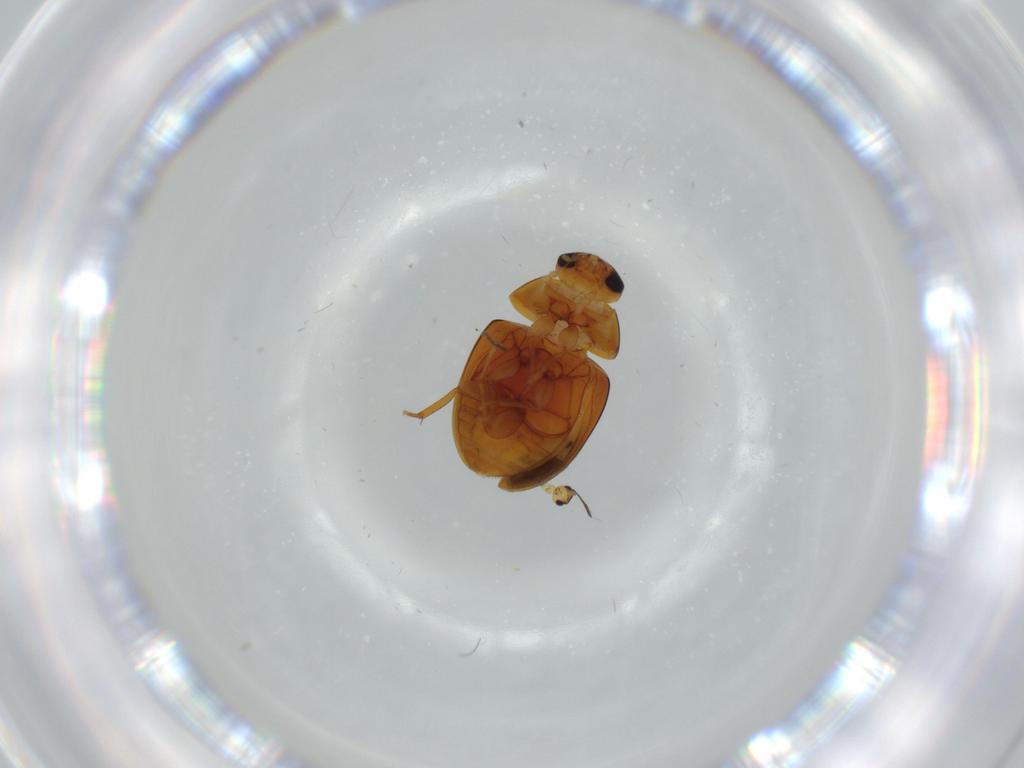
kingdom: Animalia
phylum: Arthropoda
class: Insecta
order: Coleoptera
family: Phalacridae
